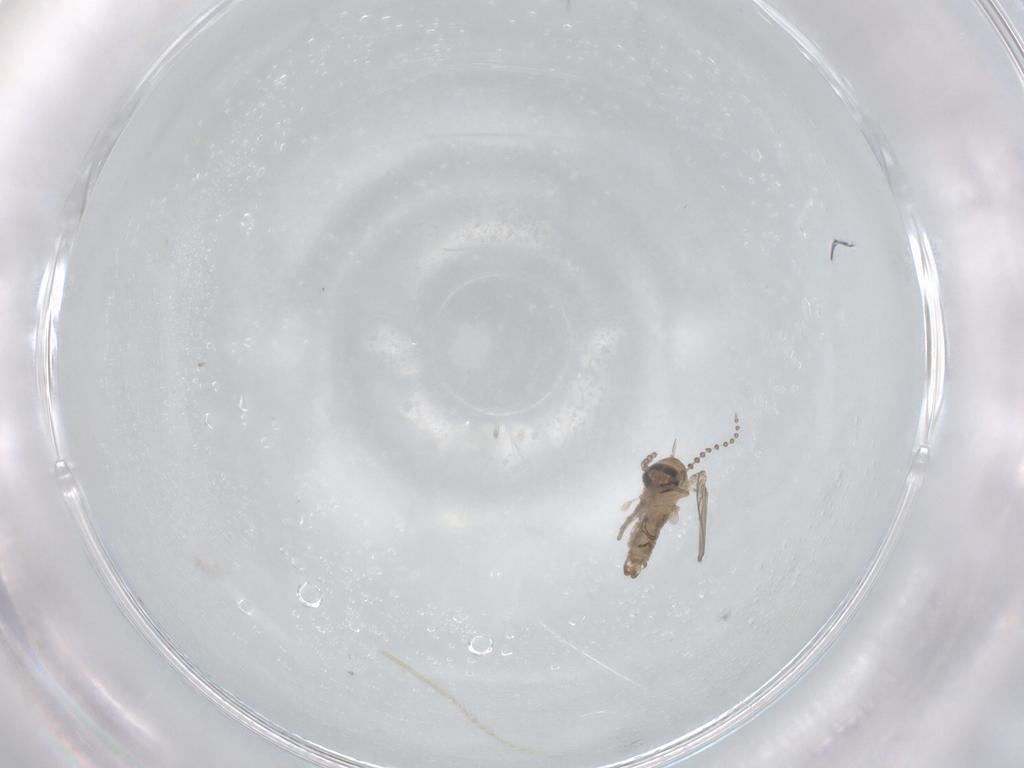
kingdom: Animalia
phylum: Arthropoda
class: Insecta
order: Diptera
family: Psychodidae
